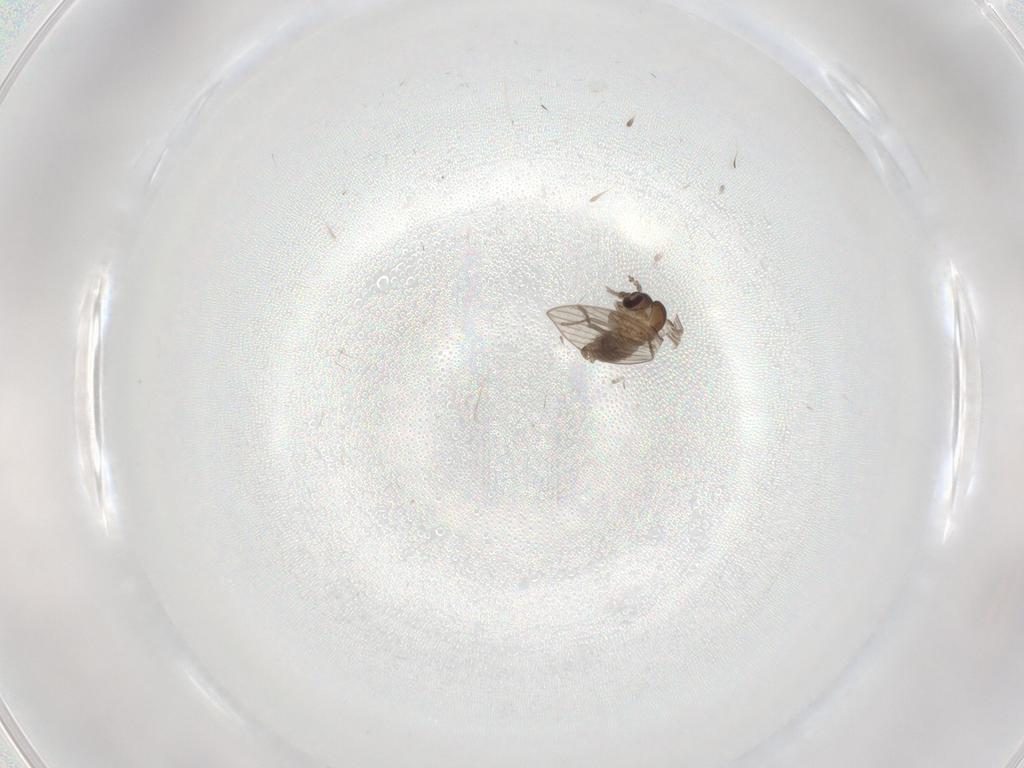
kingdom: Animalia
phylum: Arthropoda
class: Insecta
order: Diptera
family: Psychodidae
